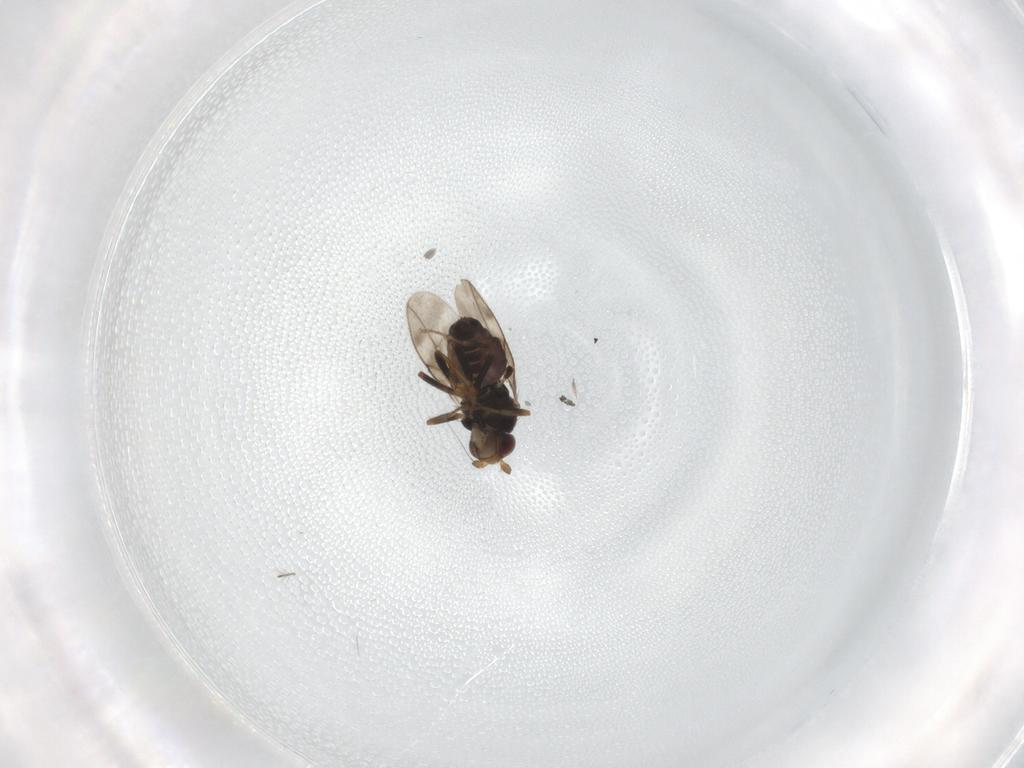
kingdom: Animalia
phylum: Arthropoda
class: Insecta
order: Diptera
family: Sphaeroceridae
